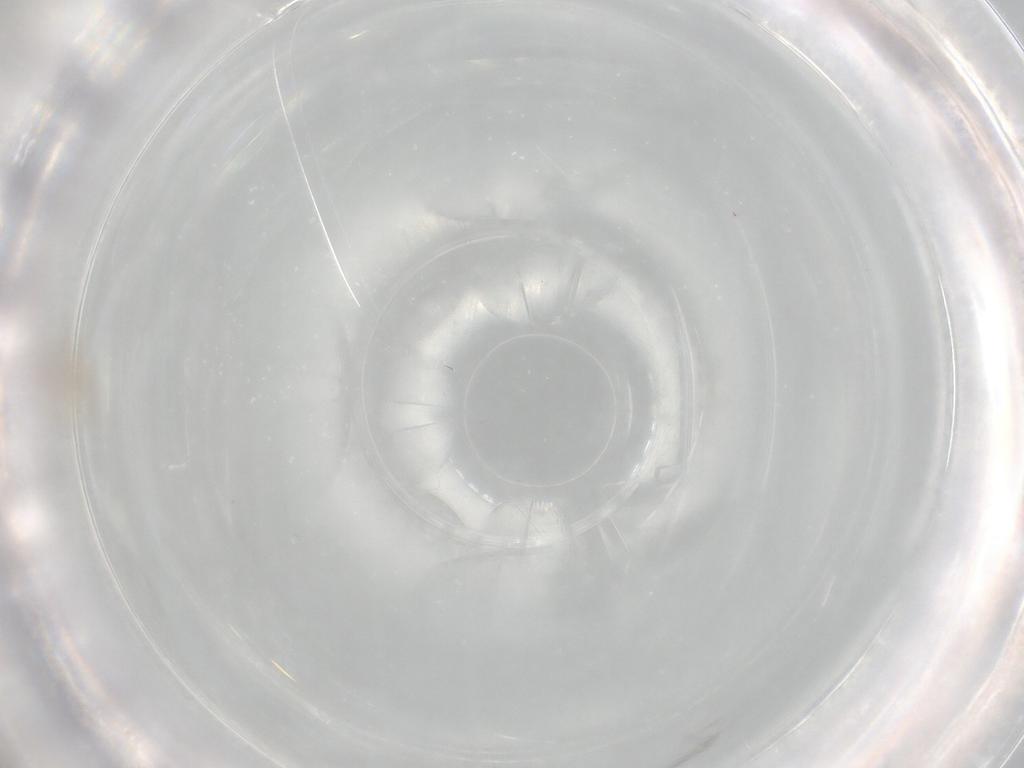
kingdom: Animalia
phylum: Arthropoda
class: Insecta
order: Diptera
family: Cecidomyiidae
